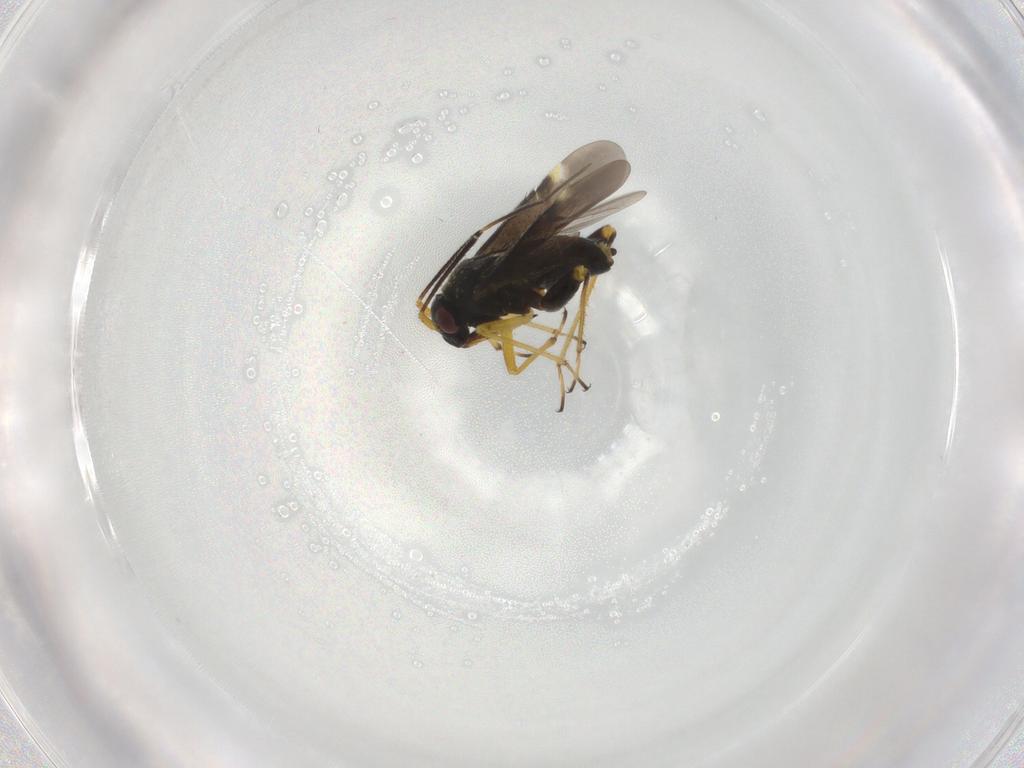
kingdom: Animalia
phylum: Arthropoda
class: Insecta
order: Hemiptera
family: Miridae
